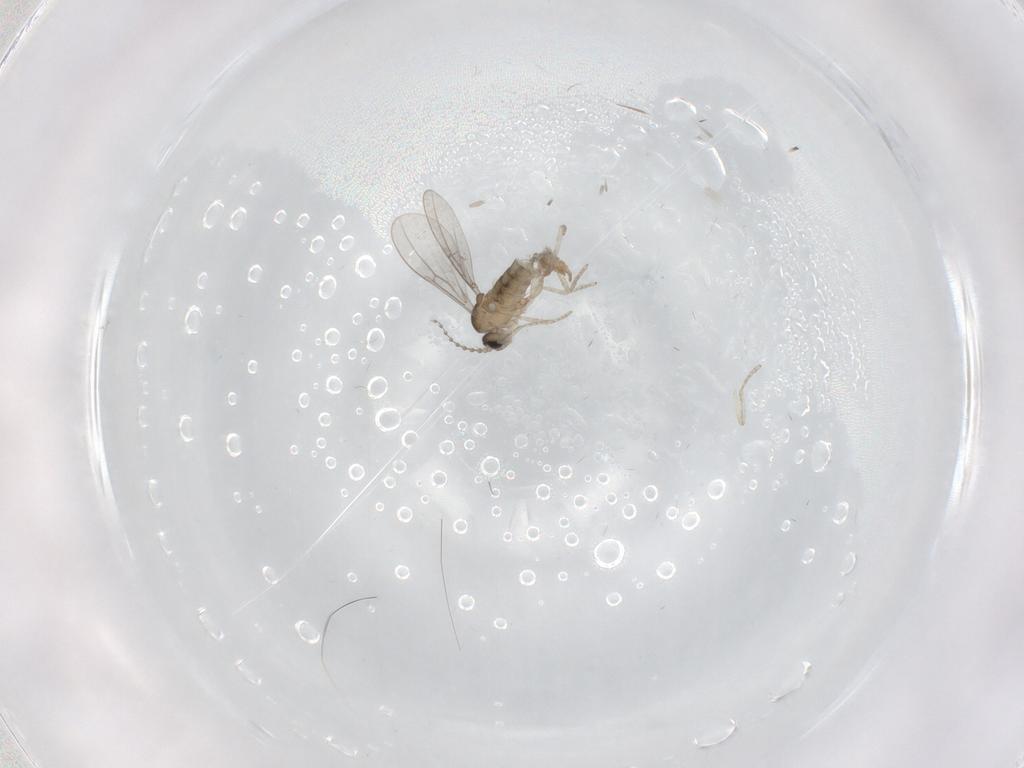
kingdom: Animalia
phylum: Arthropoda
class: Insecta
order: Diptera
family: Cecidomyiidae
